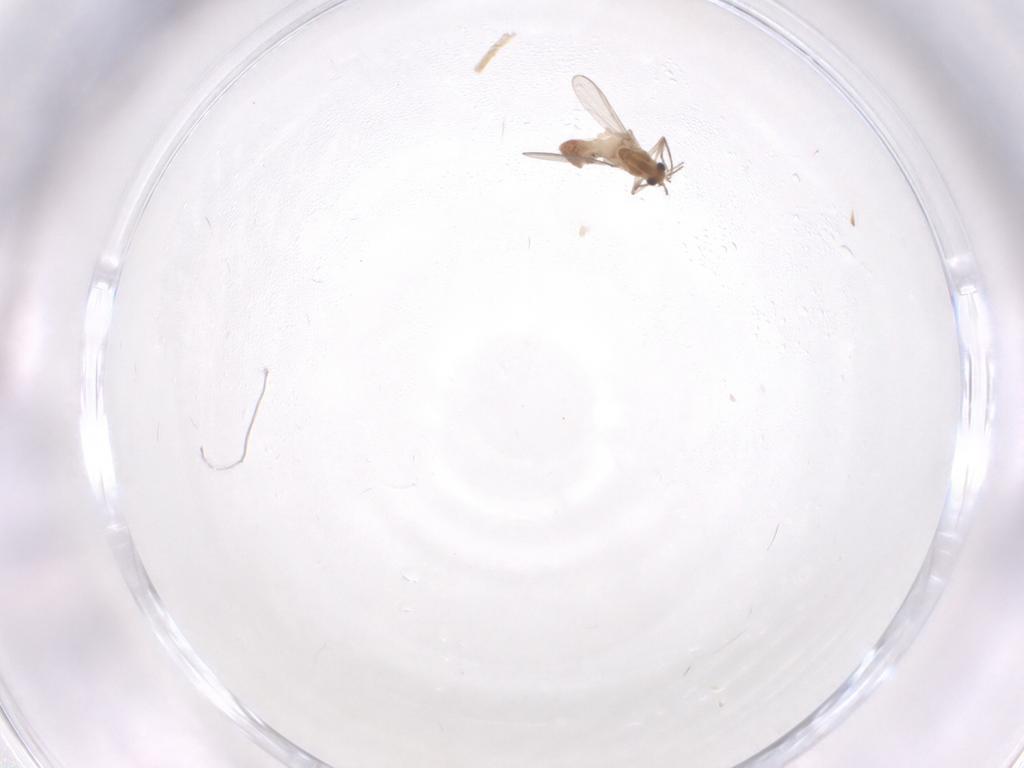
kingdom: Animalia
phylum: Arthropoda
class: Insecta
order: Diptera
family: Chironomidae
